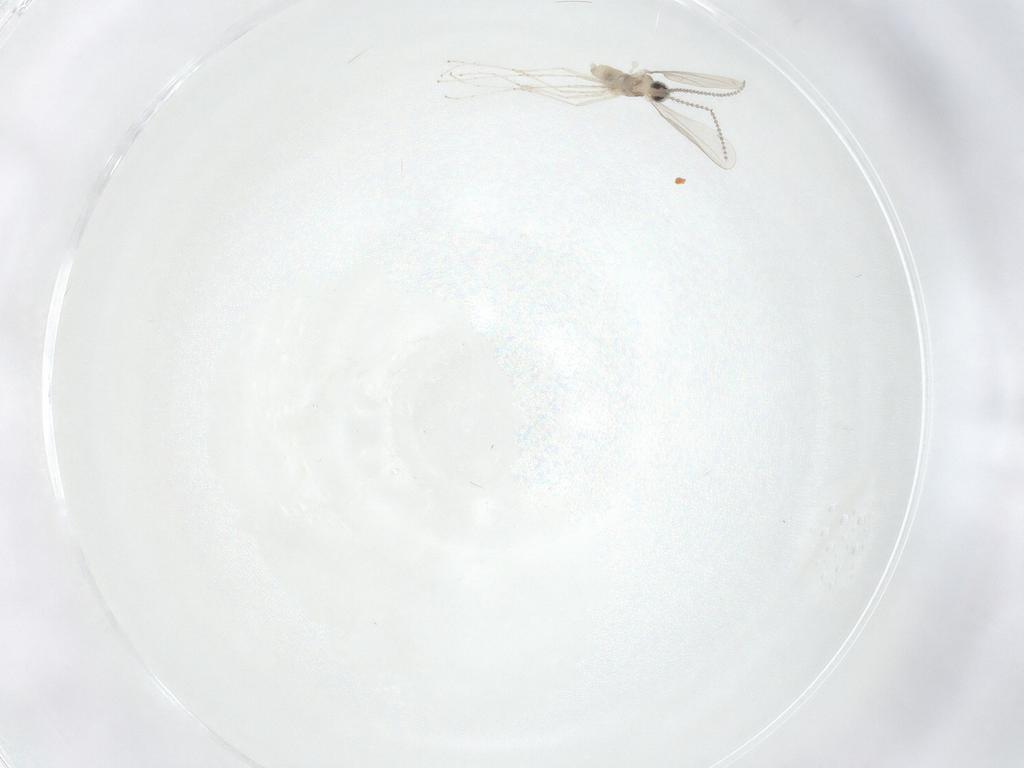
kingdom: Animalia
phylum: Arthropoda
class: Insecta
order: Diptera
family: Cecidomyiidae
